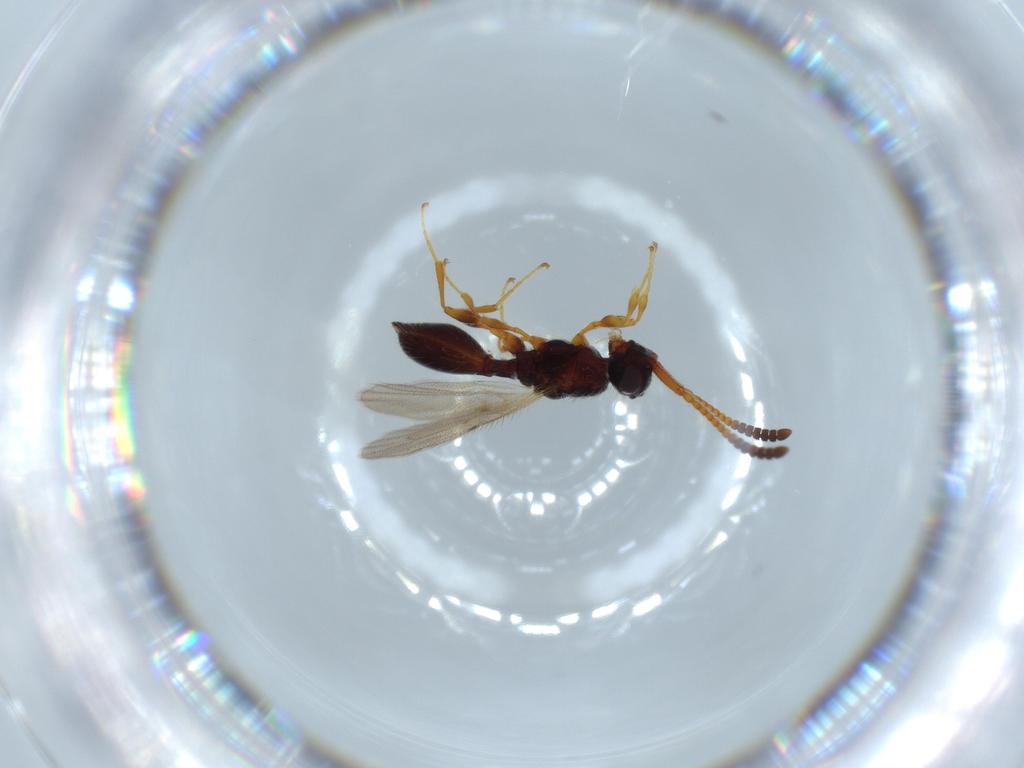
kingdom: Animalia
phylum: Arthropoda
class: Insecta
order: Hymenoptera
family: Diapriidae
